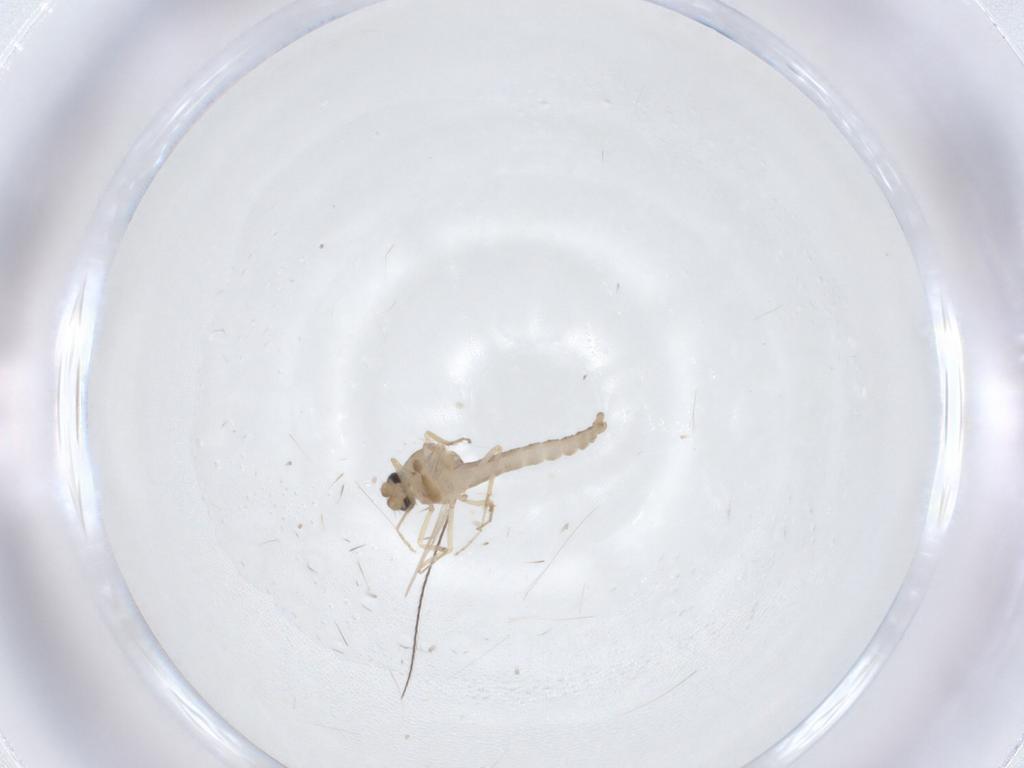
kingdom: Animalia
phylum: Arthropoda
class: Insecta
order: Diptera
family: Ceratopogonidae
